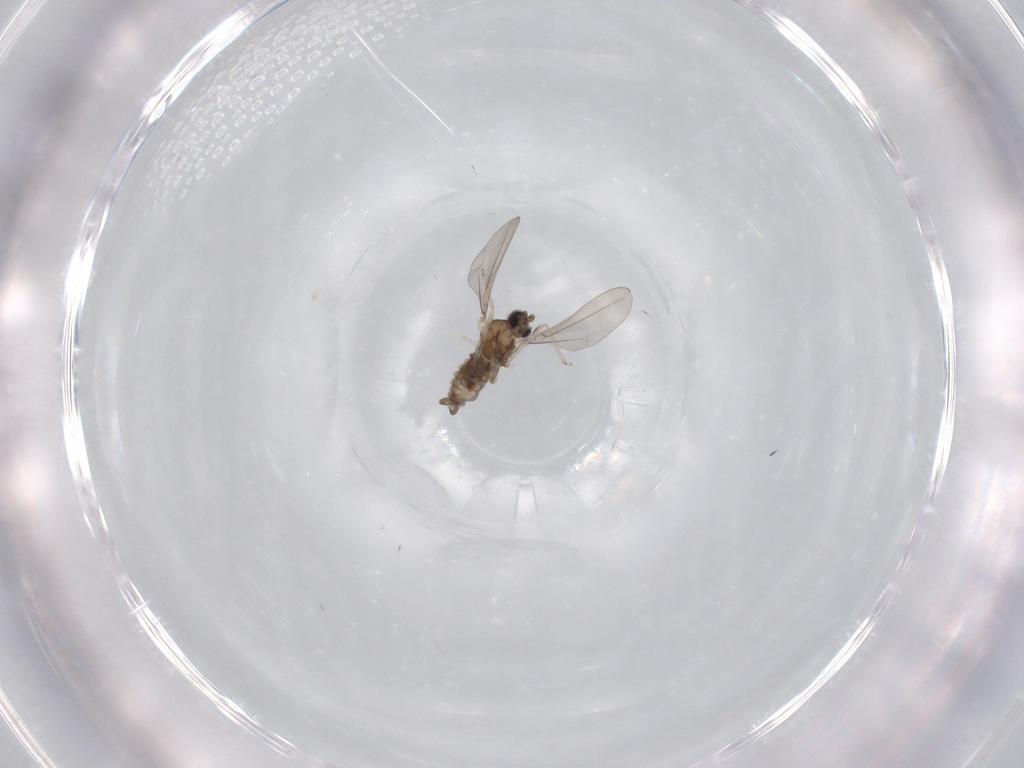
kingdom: Animalia
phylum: Arthropoda
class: Insecta
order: Diptera
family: Cecidomyiidae
